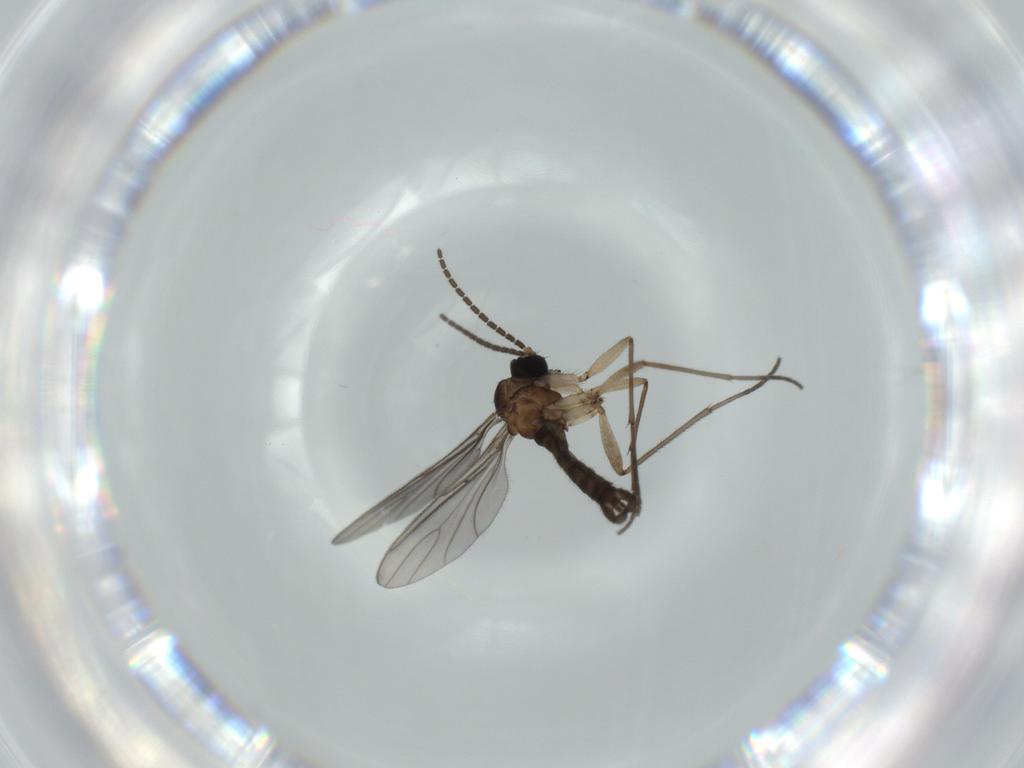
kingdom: Animalia
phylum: Arthropoda
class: Insecta
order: Diptera
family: Sciaridae
